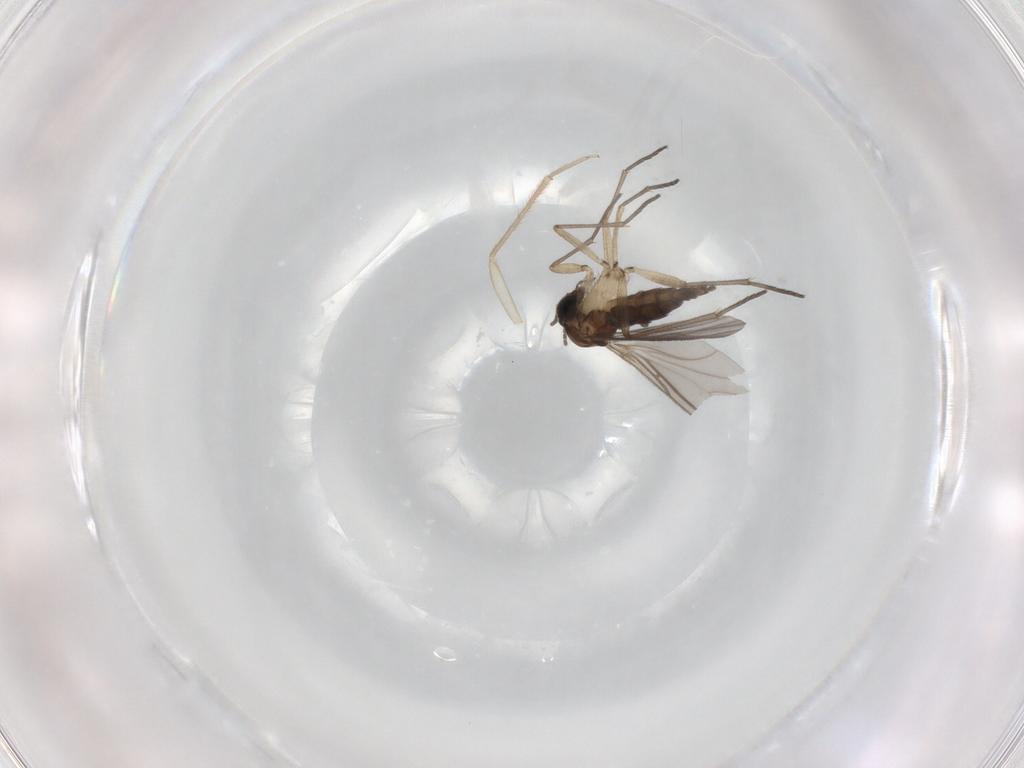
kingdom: Animalia
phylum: Arthropoda
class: Insecta
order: Diptera
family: Sciaridae
